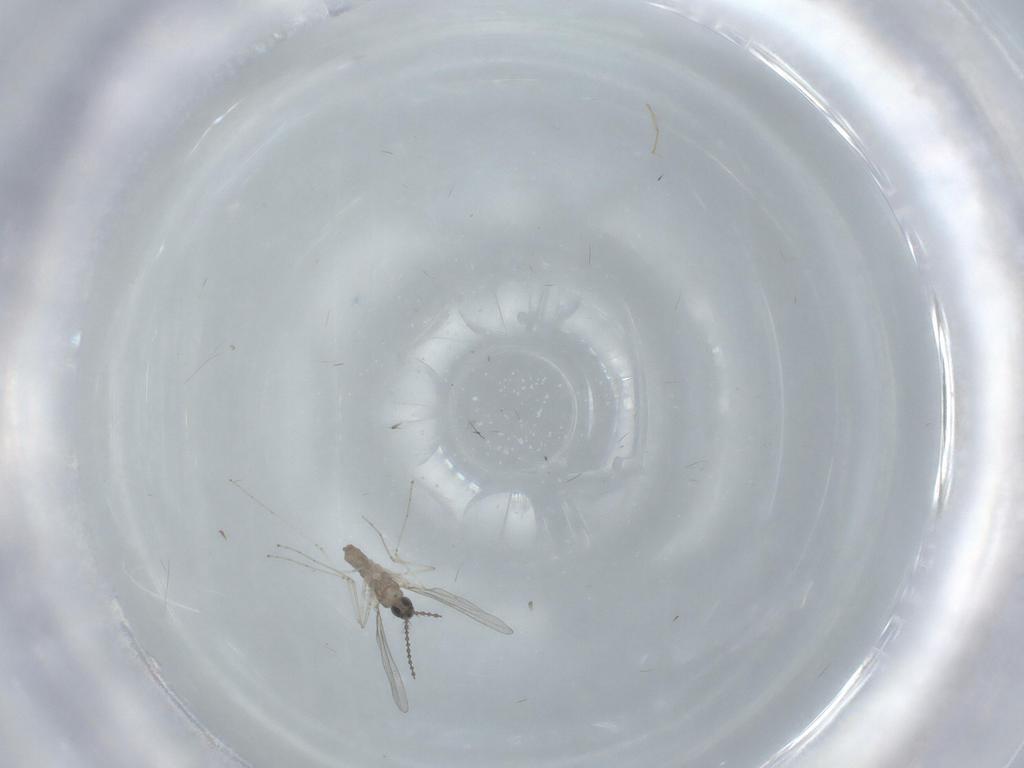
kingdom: Animalia
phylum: Arthropoda
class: Insecta
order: Diptera
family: Cecidomyiidae
